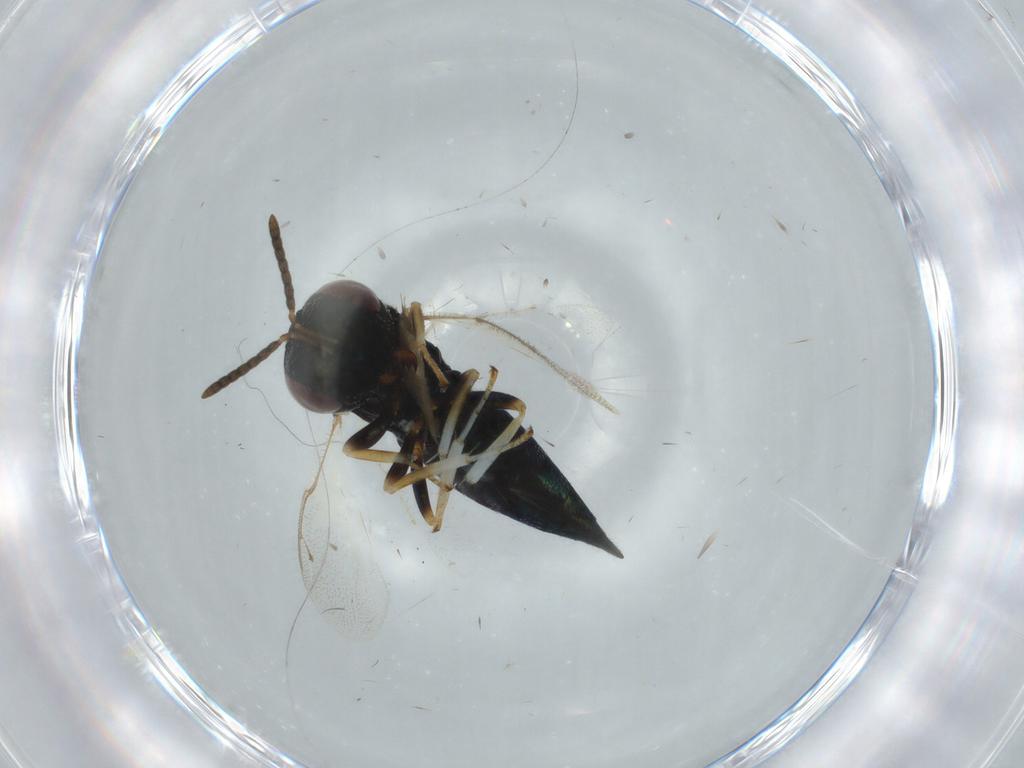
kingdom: Animalia
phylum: Arthropoda
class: Insecta
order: Hymenoptera
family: Pteromalidae
